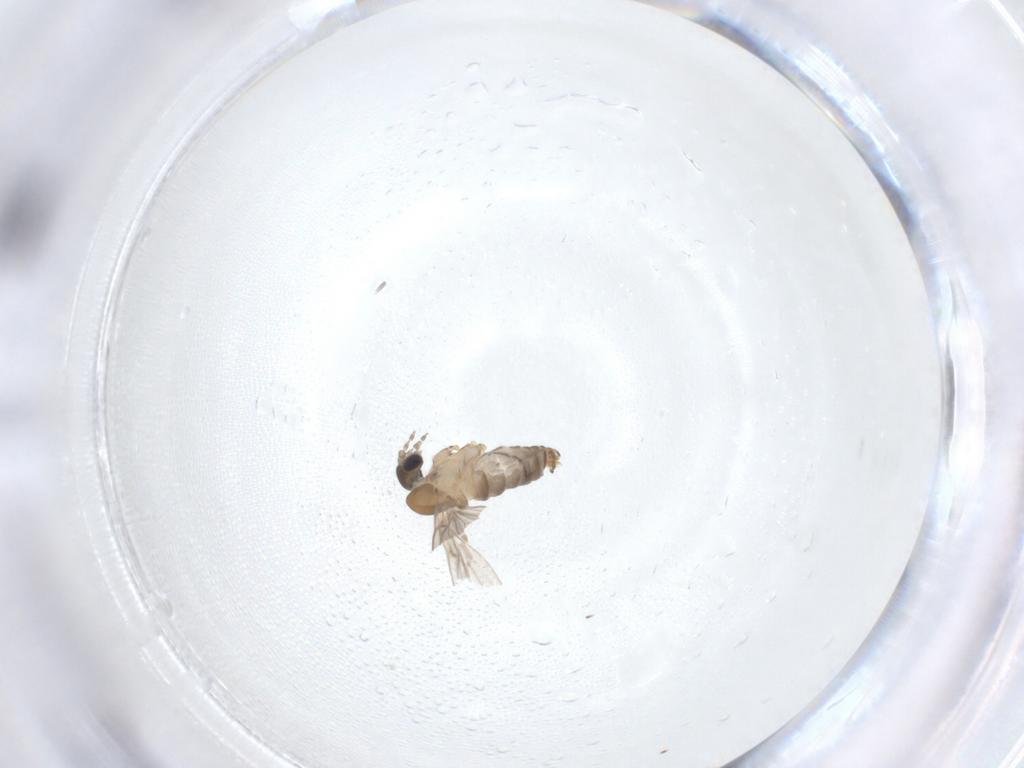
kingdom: Animalia
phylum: Arthropoda
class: Insecta
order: Diptera
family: Psychodidae
